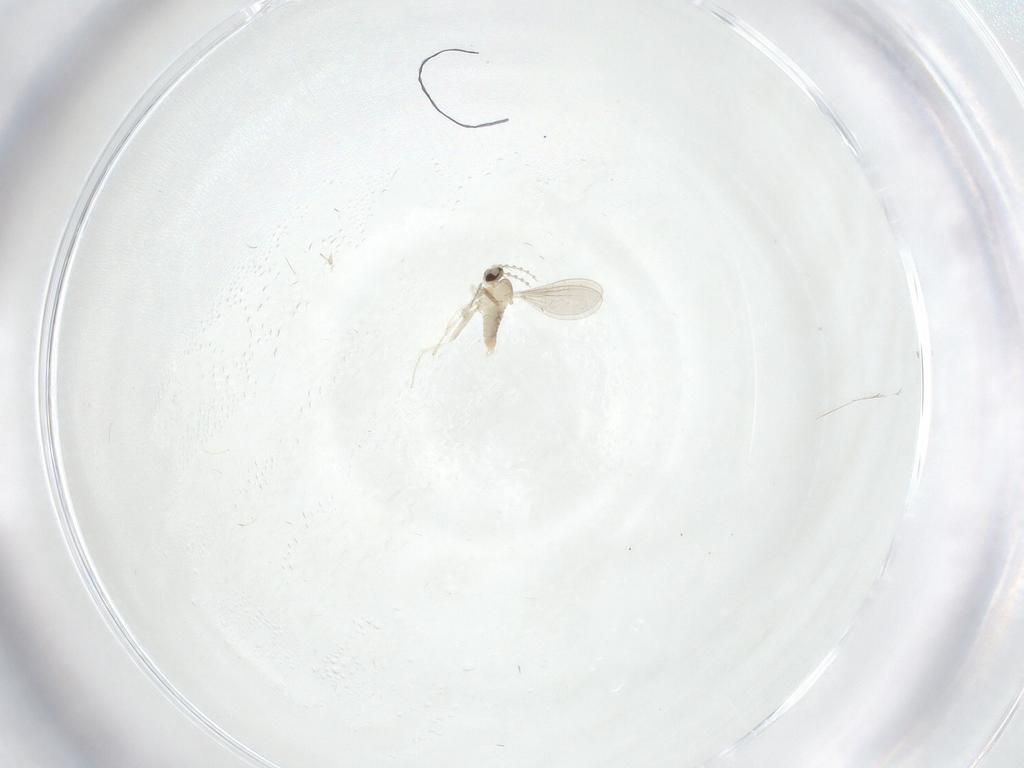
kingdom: Animalia
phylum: Arthropoda
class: Insecta
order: Diptera
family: Cecidomyiidae
